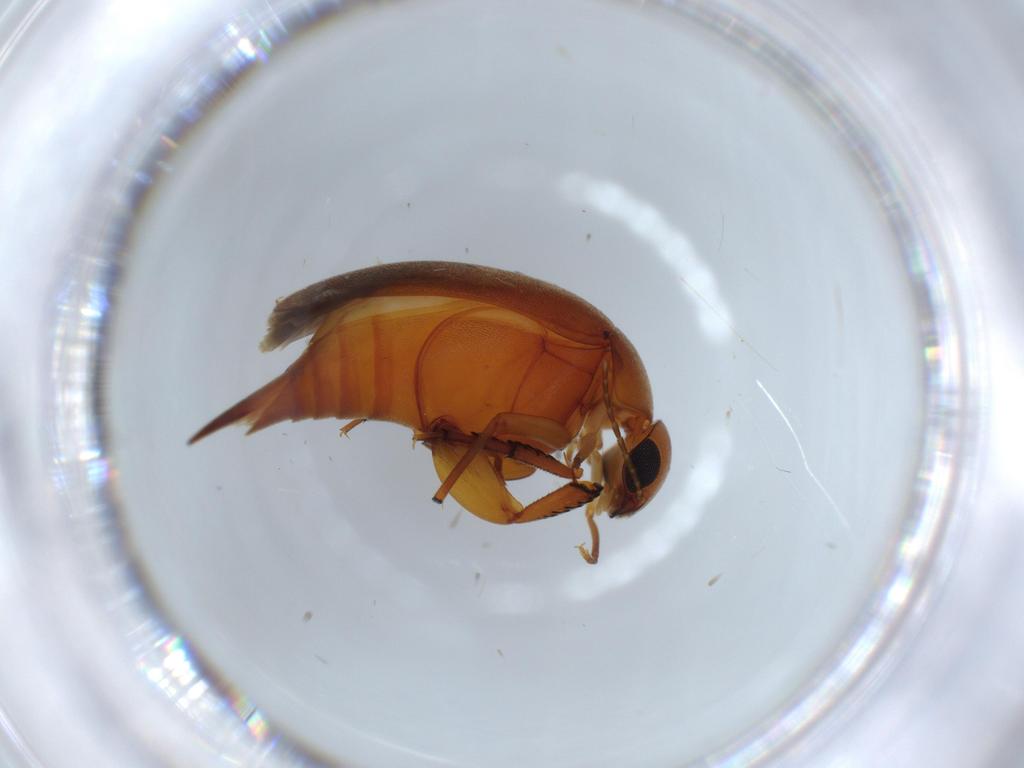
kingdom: Animalia
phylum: Arthropoda
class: Insecta
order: Coleoptera
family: Mordellidae
